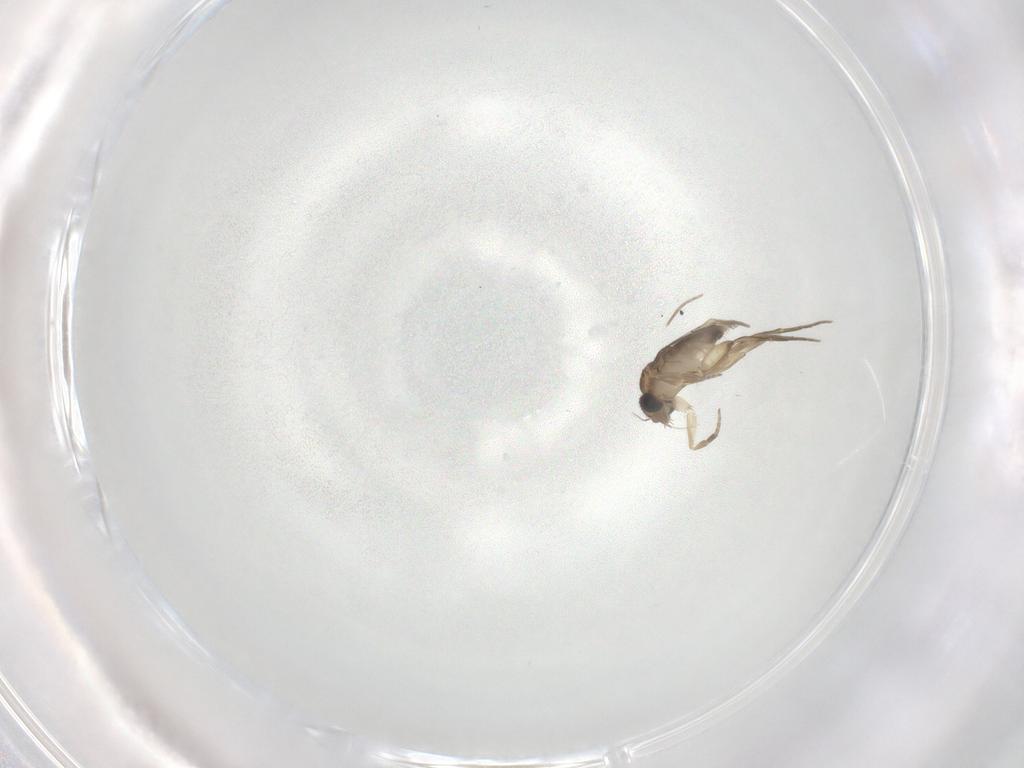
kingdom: Animalia
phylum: Arthropoda
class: Insecta
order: Diptera
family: Phoridae
